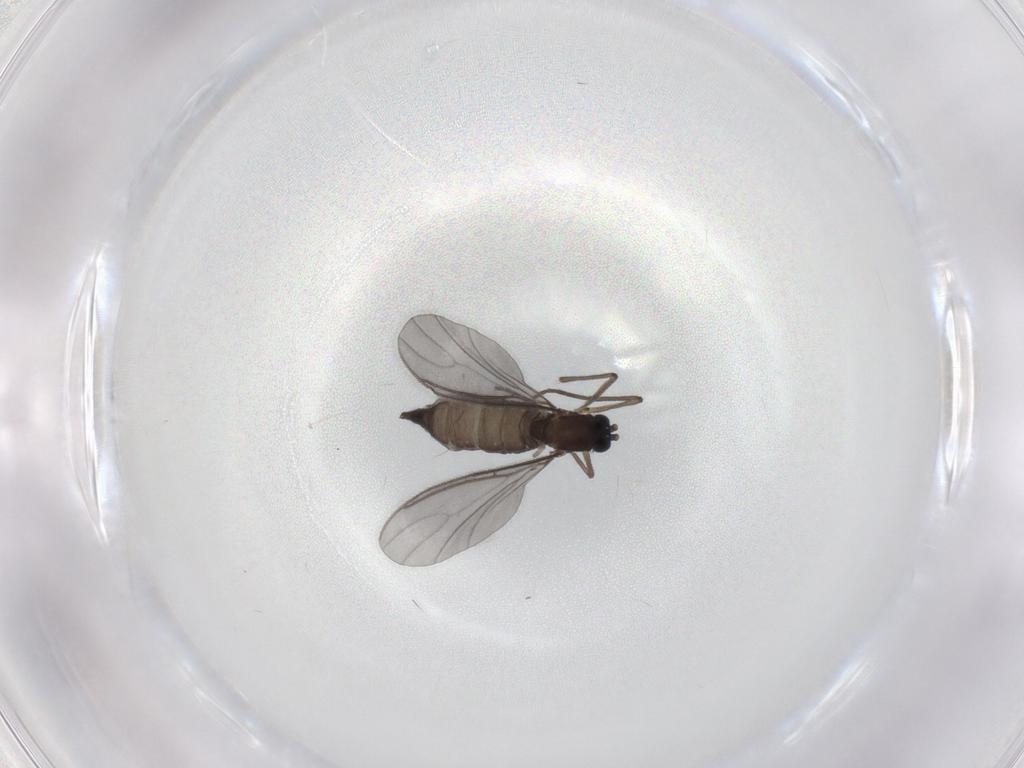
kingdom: Animalia
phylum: Arthropoda
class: Insecta
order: Diptera
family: Sciaridae
